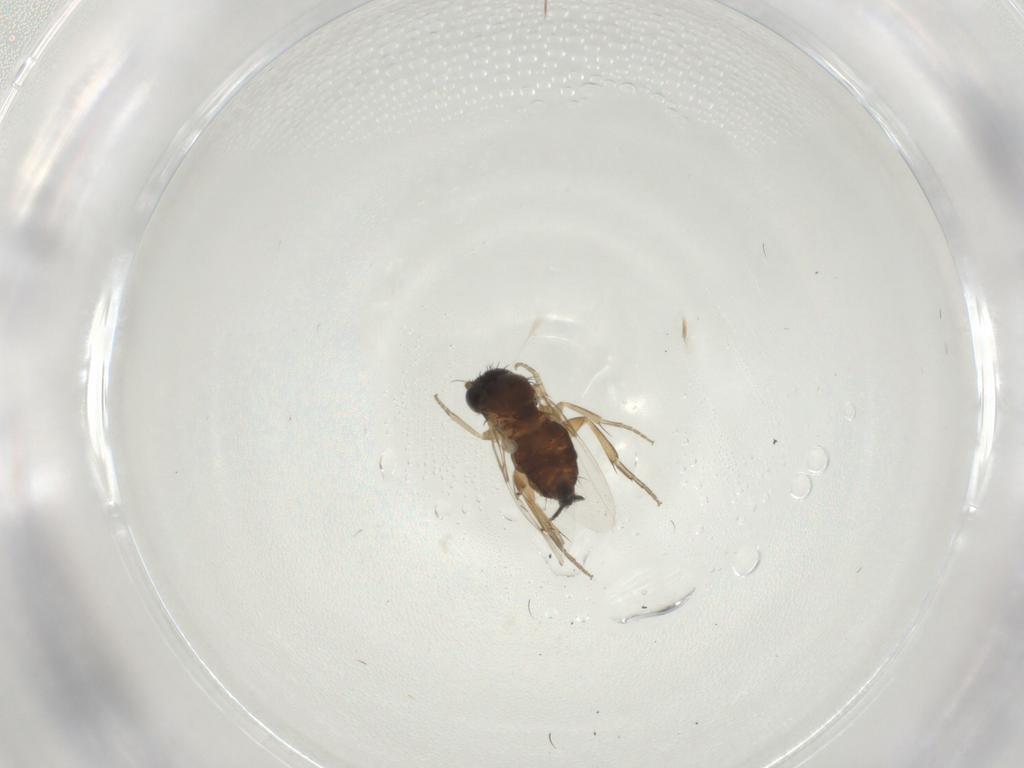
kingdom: Animalia
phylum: Arthropoda
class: Insecta
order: Diptera
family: Phoridae
